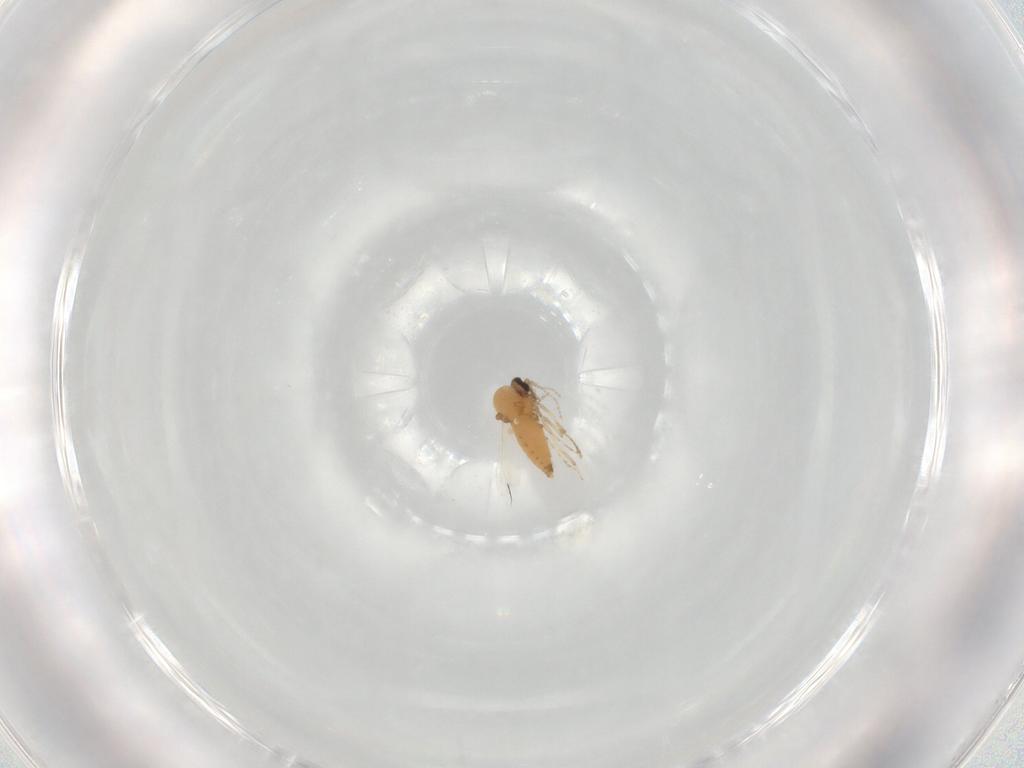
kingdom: Animalia
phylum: Arthropoda
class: Insecta
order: Diptera
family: Ceratopogonidae
